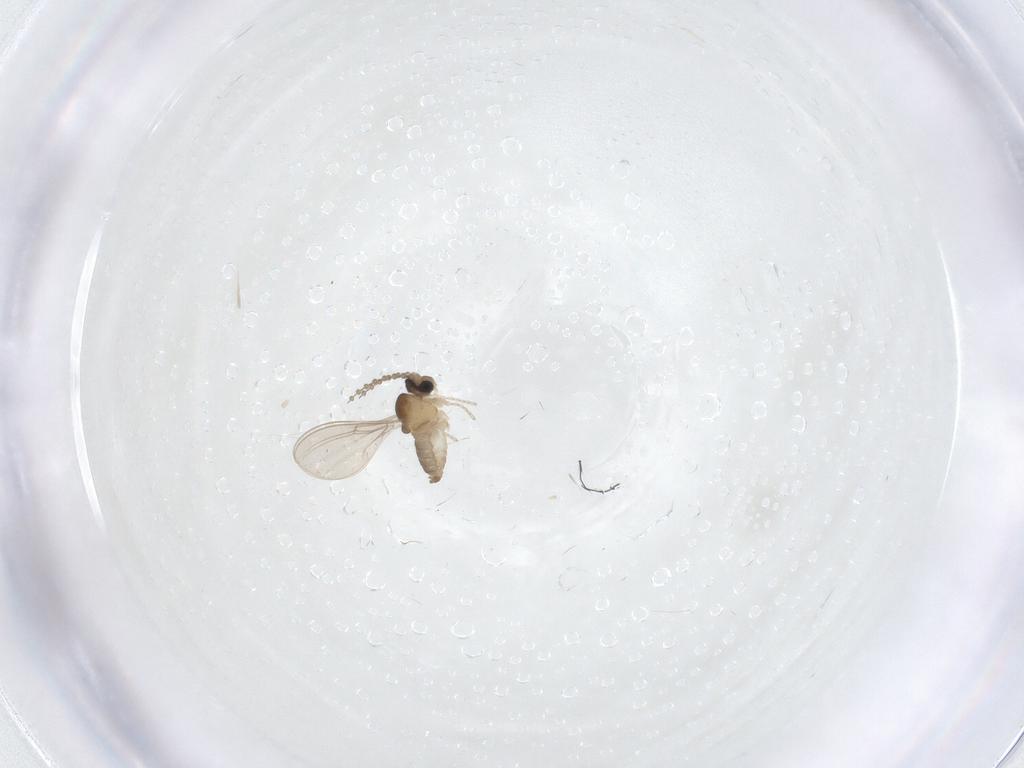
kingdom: Animalia
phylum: Arthropoda
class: Insecta
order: Diptera
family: Cecidomyiidae
